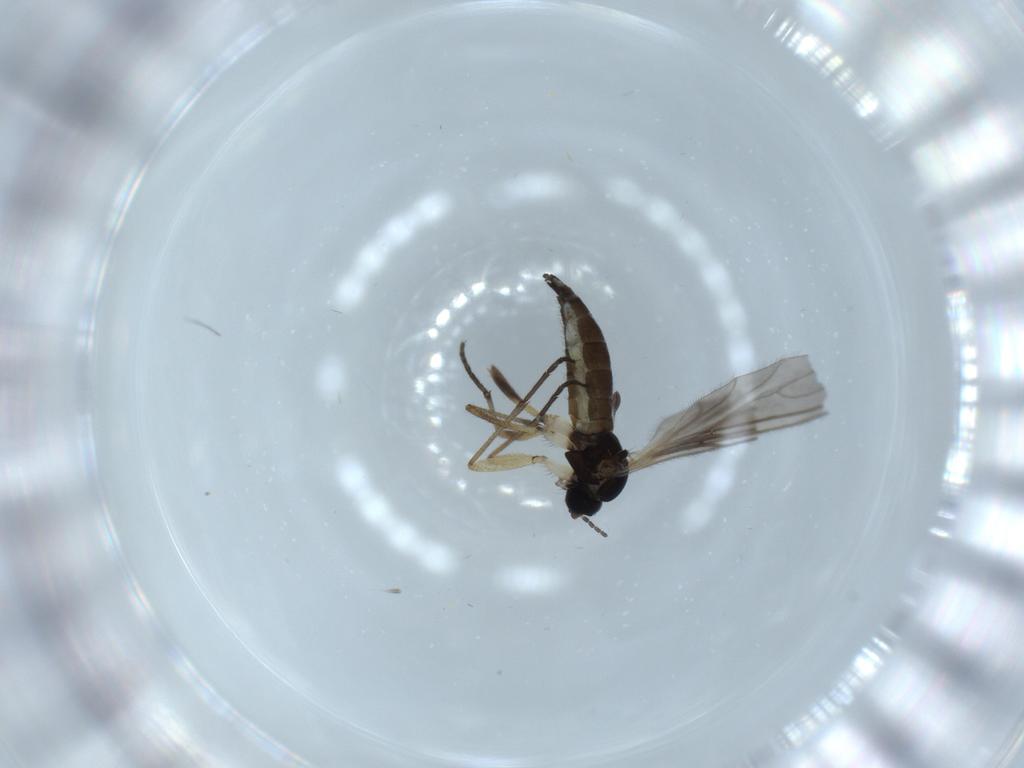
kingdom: Animalia
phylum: Arthropoda
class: Insecta
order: Diptera
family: Sciaridae
